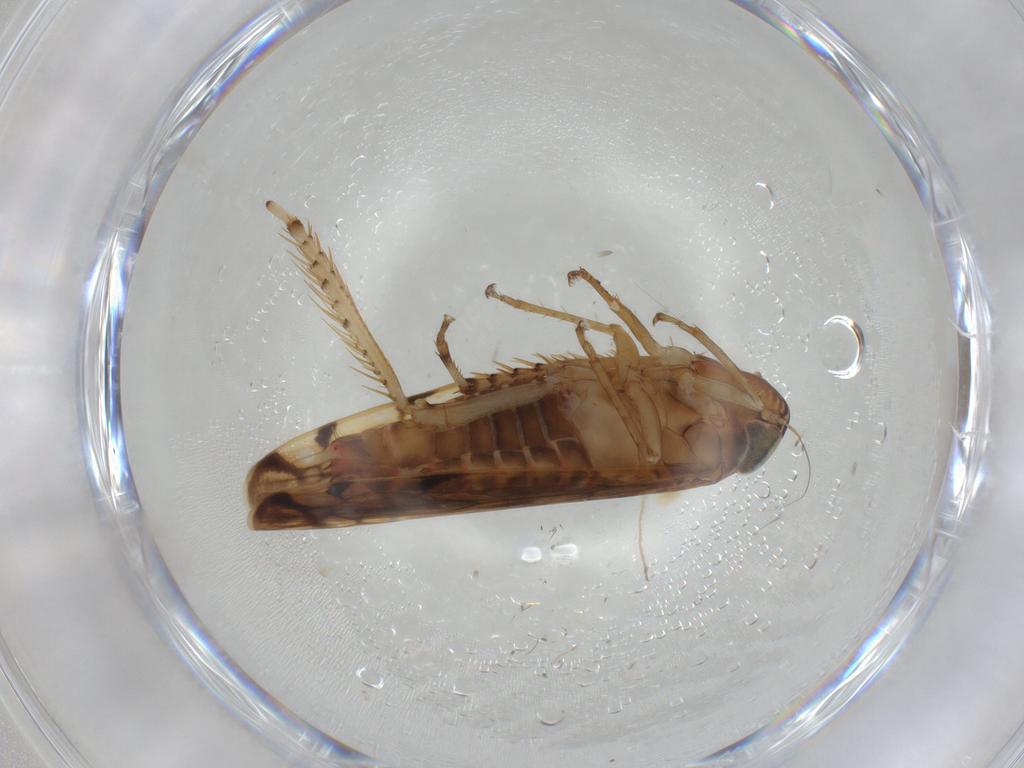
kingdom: Animalia
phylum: Arthropoda
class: Insecta
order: Hemiptera
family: Cicadellidae
